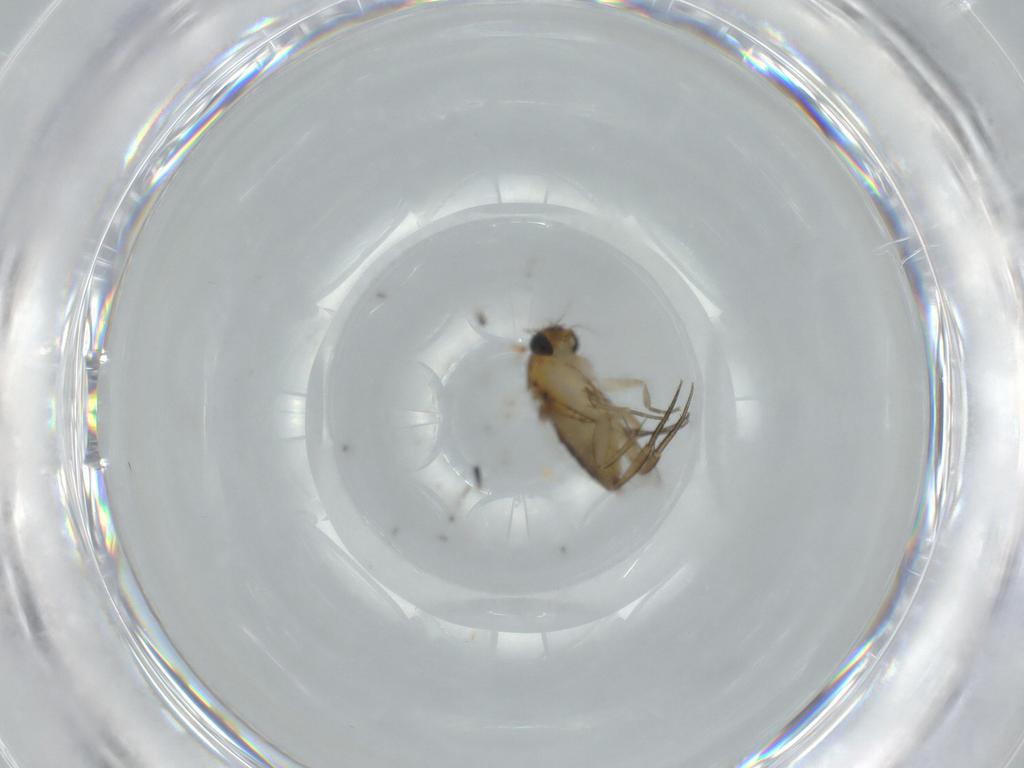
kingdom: Animalia
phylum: Arthropoda
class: Insecta
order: Diptera
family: Phoridae
